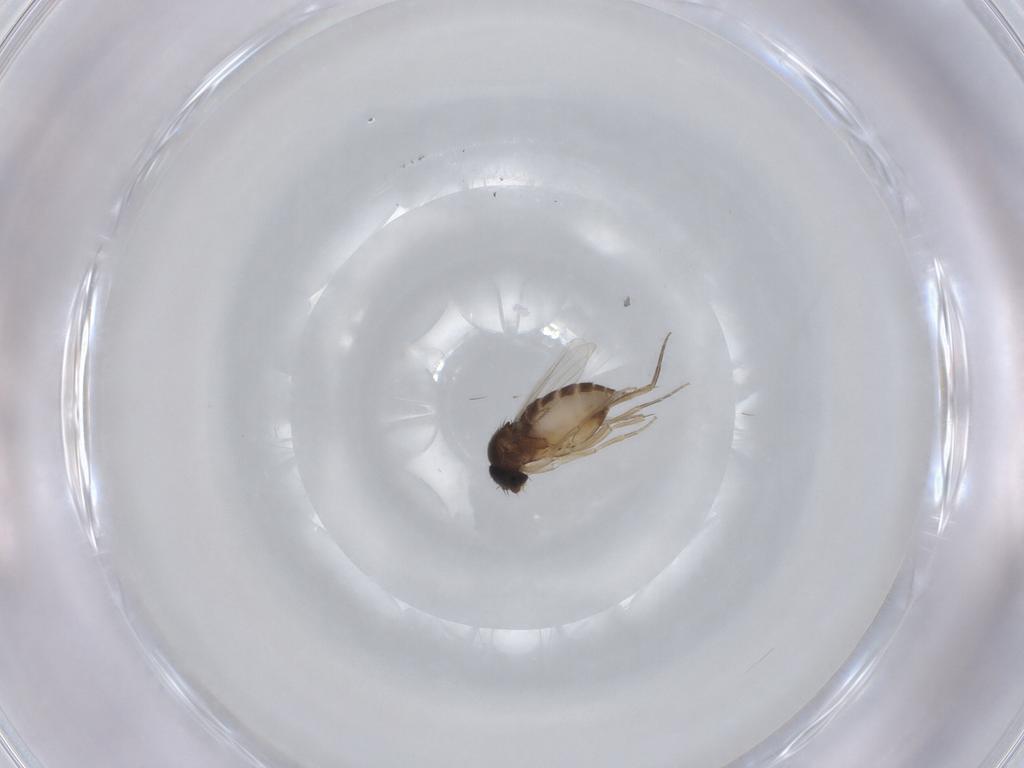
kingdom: Animalia
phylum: Arthropoda
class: Insecta
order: Diptera
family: Phoridae
